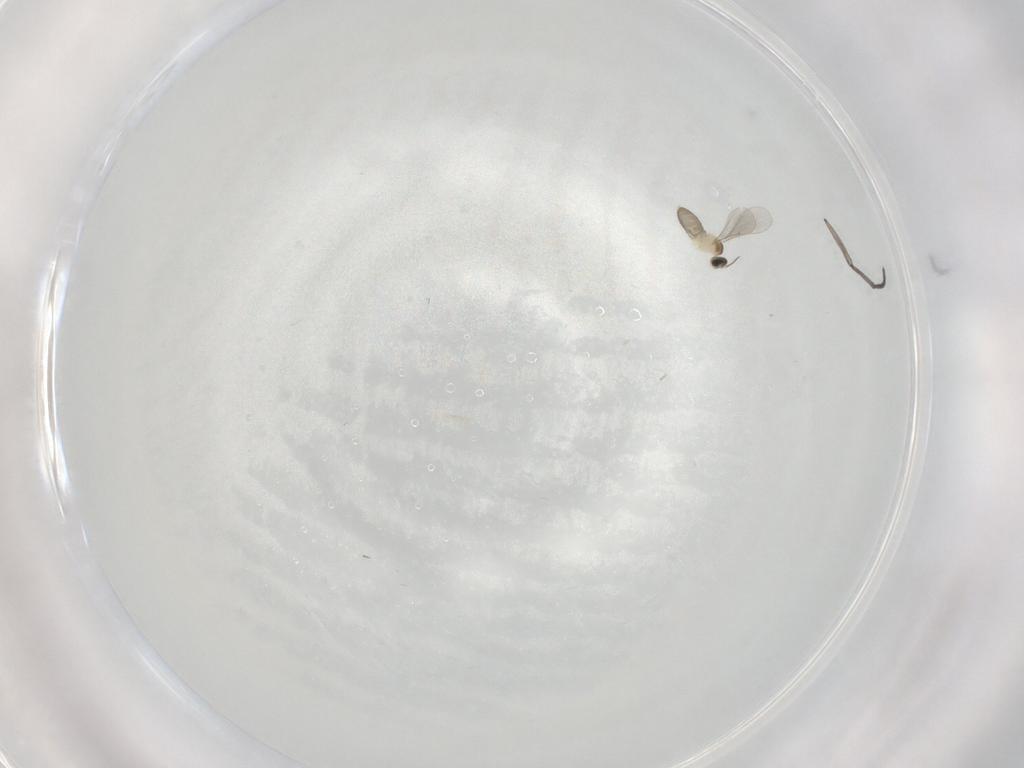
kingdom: Animalia
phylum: Arthropoda
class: Insecta
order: Diptera
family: Sciaridae
